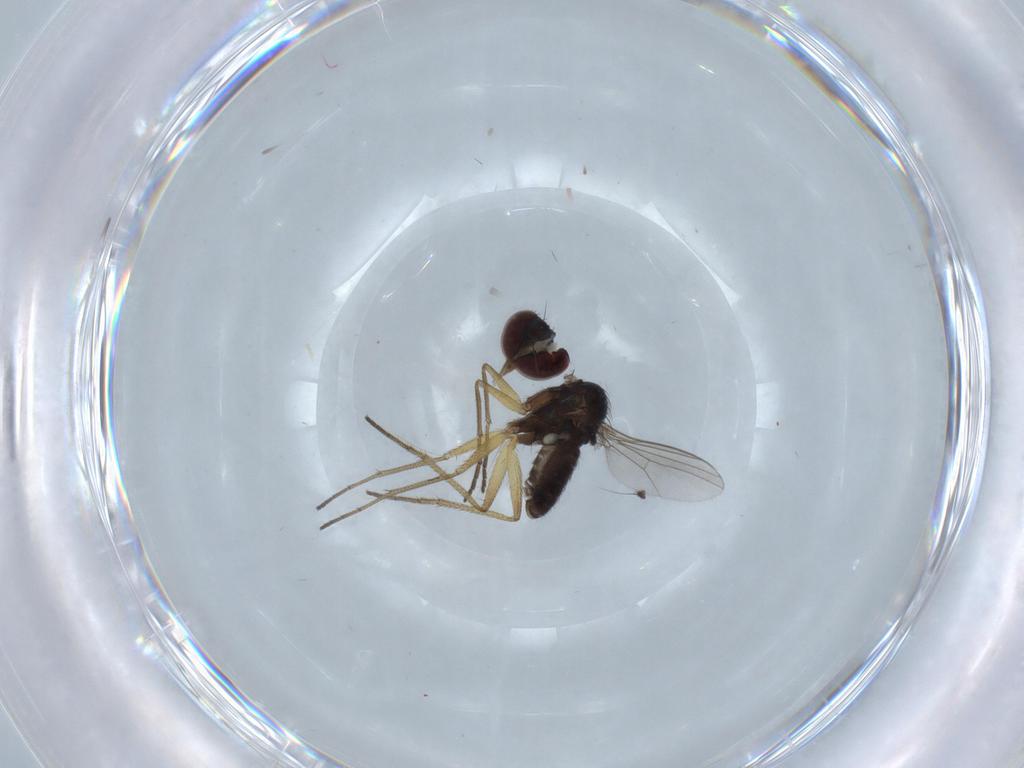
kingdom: Animalia
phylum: Arthropoda
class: Insecta
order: Diptera
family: Dolichopodidae
